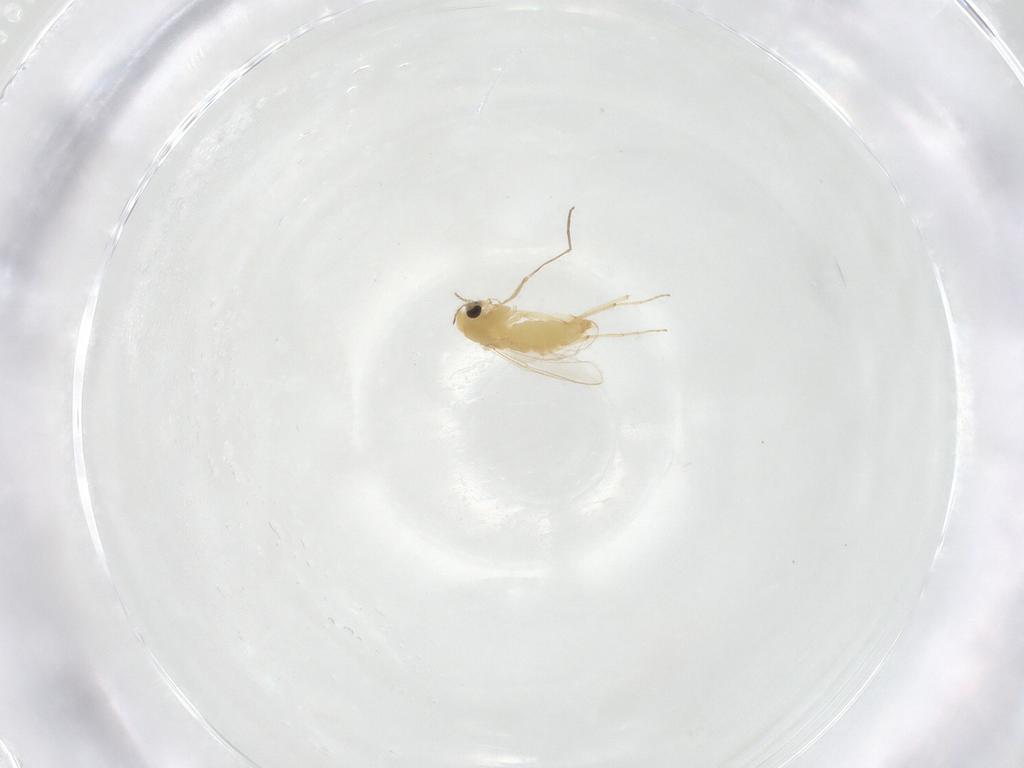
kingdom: Animalia
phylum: Arthropoda
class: Insecta
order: Diptera
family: Chironomidae
